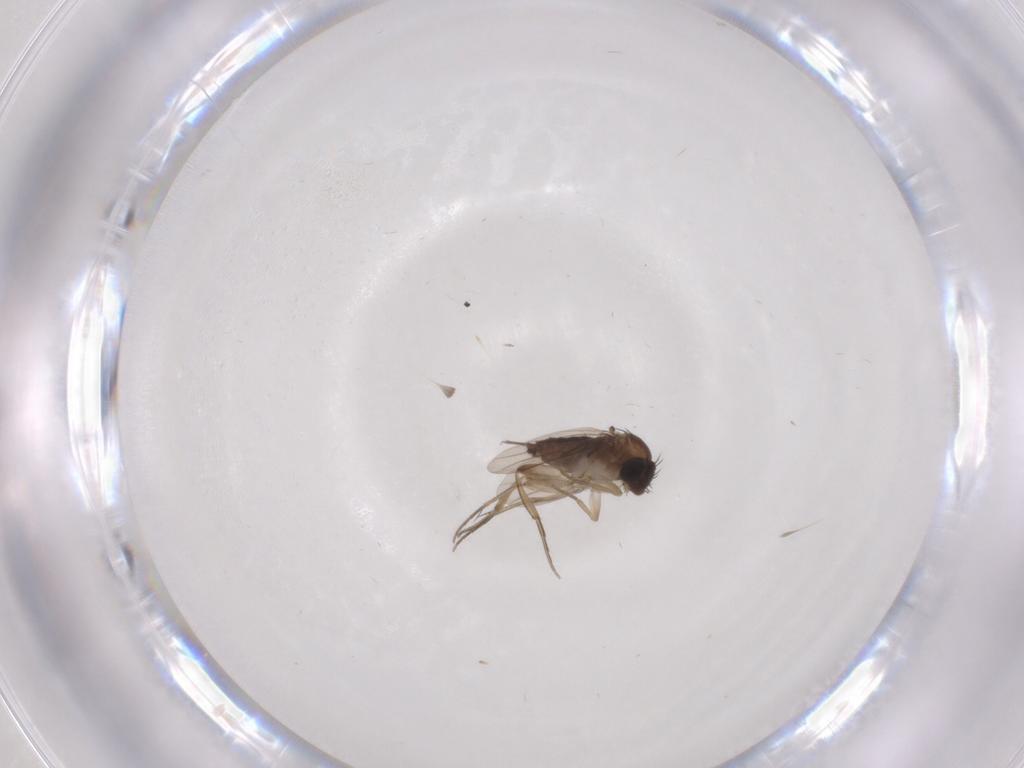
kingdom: Animalia
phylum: Arthropoda
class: Insecta
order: Diptera
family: Phoridae
